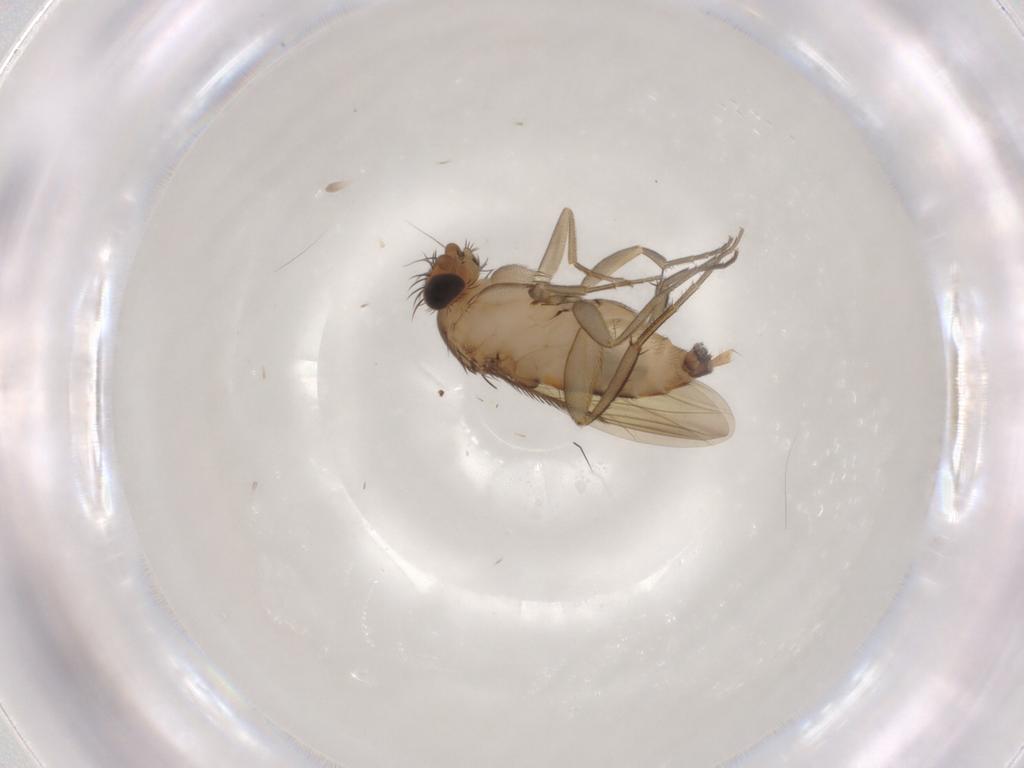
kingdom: Animalia
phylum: Arthropoda
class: Insecta
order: Diptera
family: Phoridae
